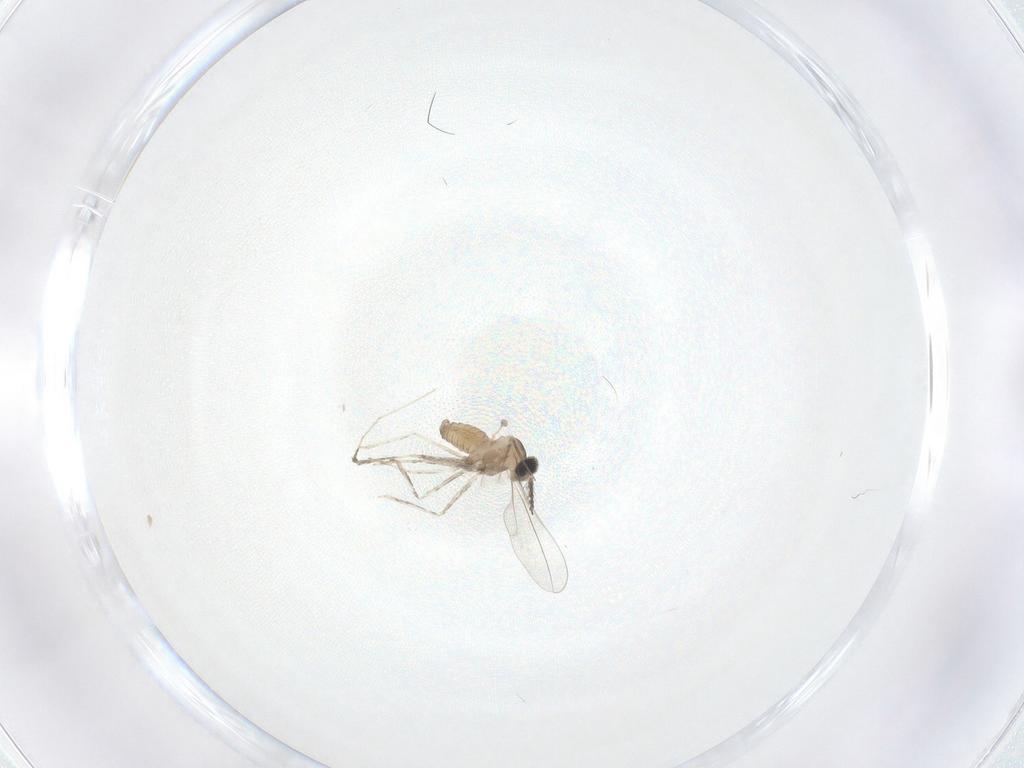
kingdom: Animalia
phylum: Arthropoda
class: Insecta
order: Diptera
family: Cecidomyiidae
